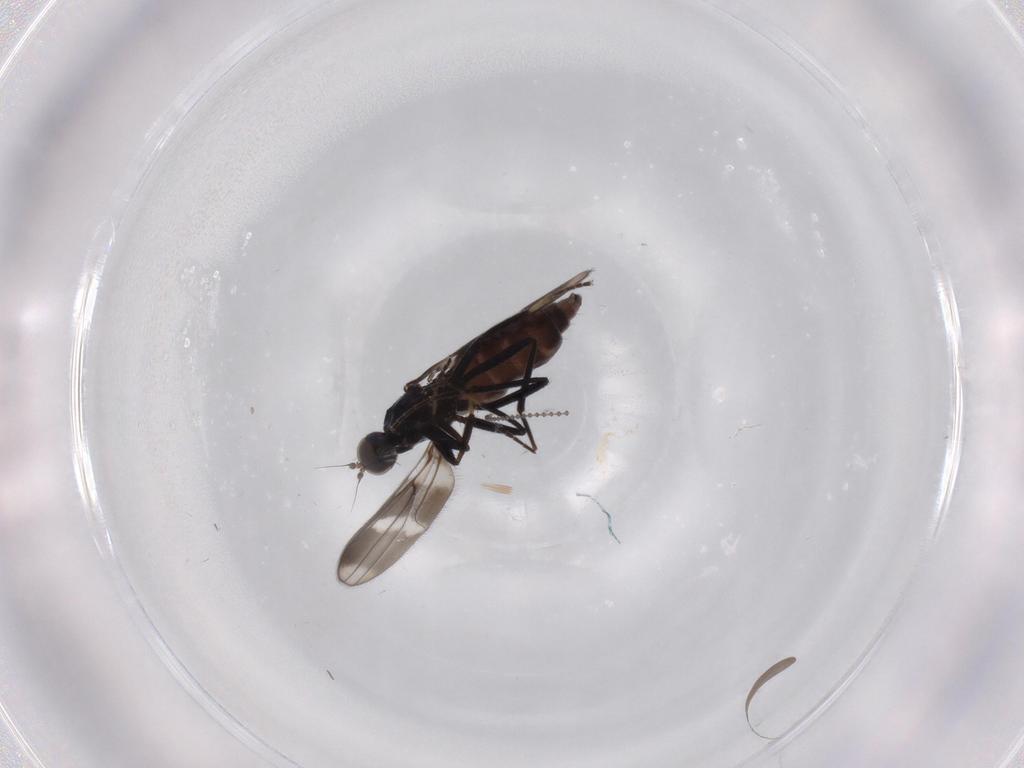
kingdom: Animalia
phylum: Arthropoda
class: Insecta
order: Diptera
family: Hybotidae
